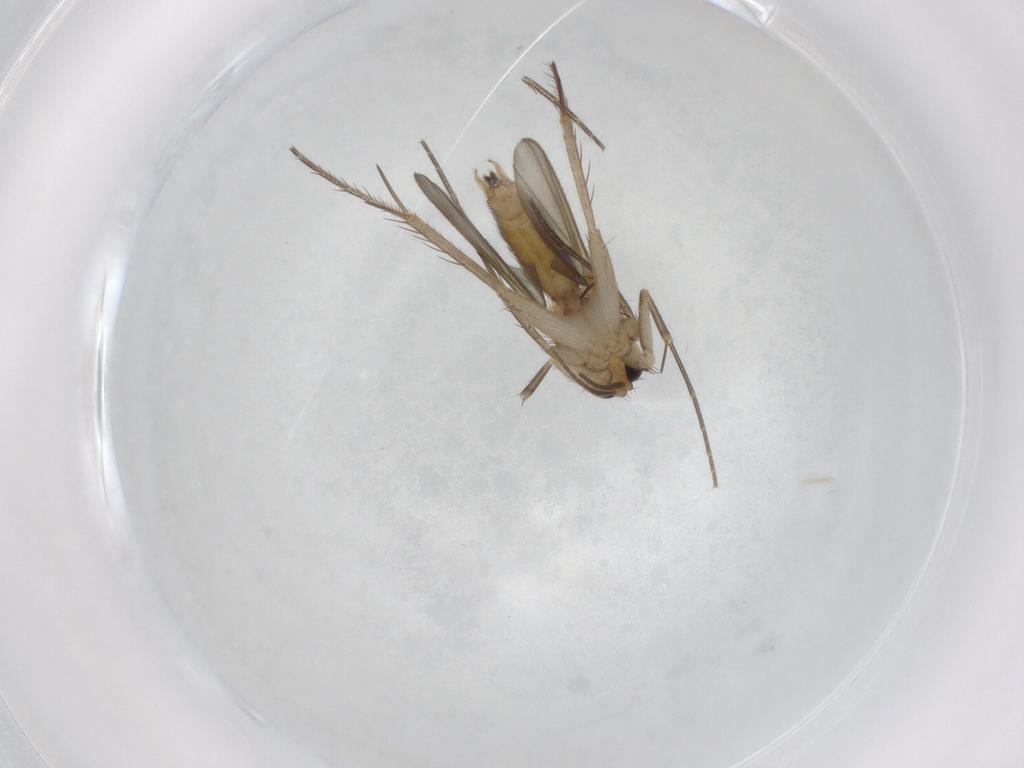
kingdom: Animalia
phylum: Arthropoda
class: Insecta
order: Diptera
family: Mycetophilidae
